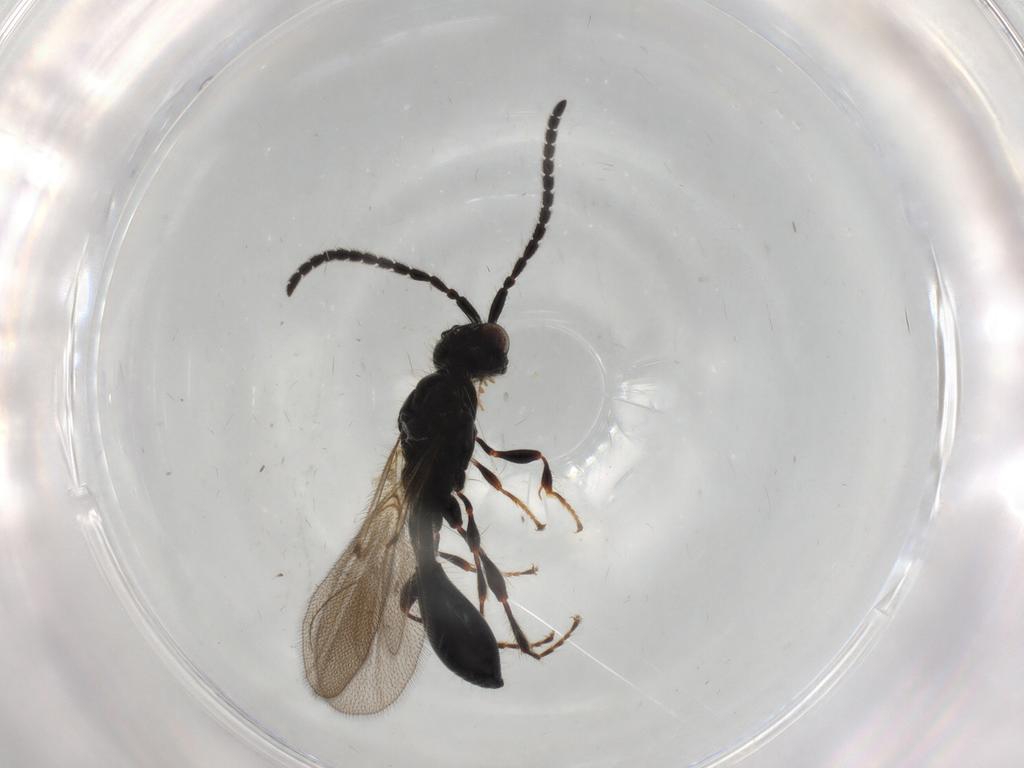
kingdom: Animalia
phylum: Arthropoda
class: Insecta
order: Hymenoptera
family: Diapriidae
